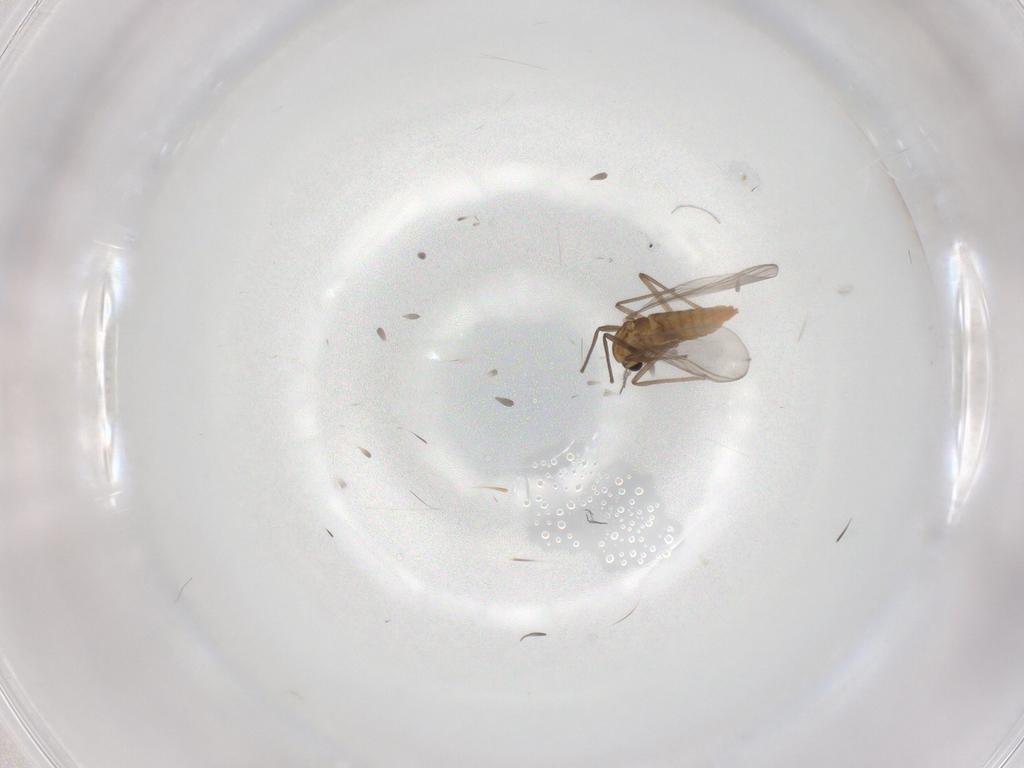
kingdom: Animalia
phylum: Arthropoda
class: Insecta
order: Diptera
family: Chironomidae
